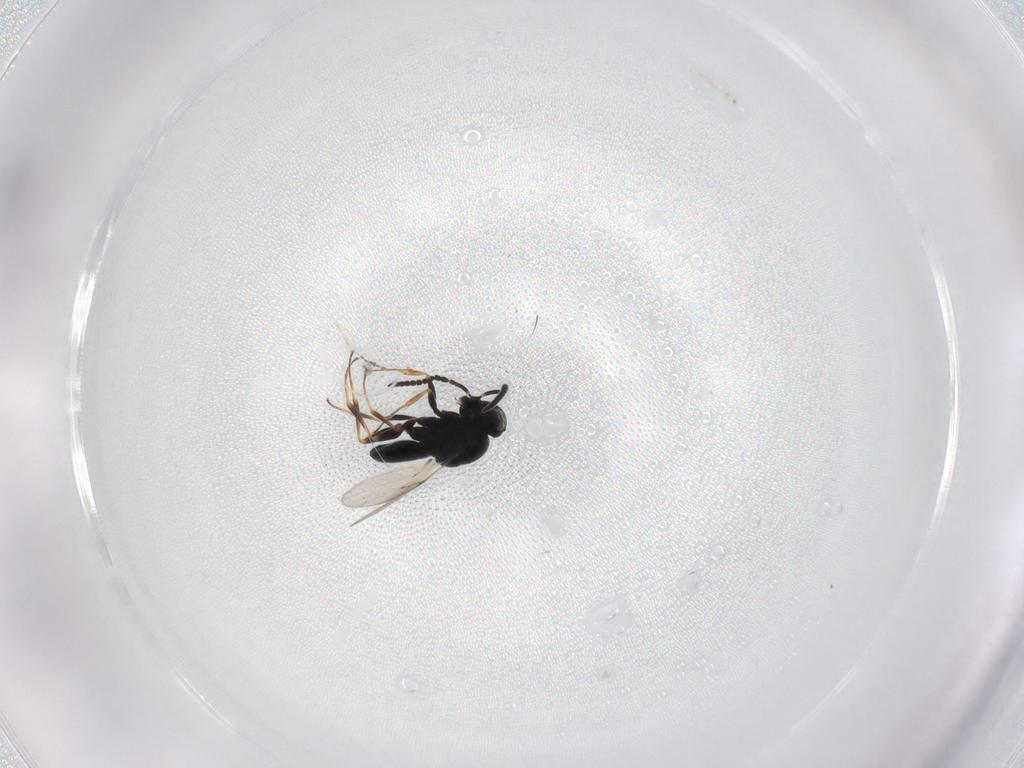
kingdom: Animalia
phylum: Arthropoda
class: Insecta
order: Hymenoptera
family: Scelionidae
